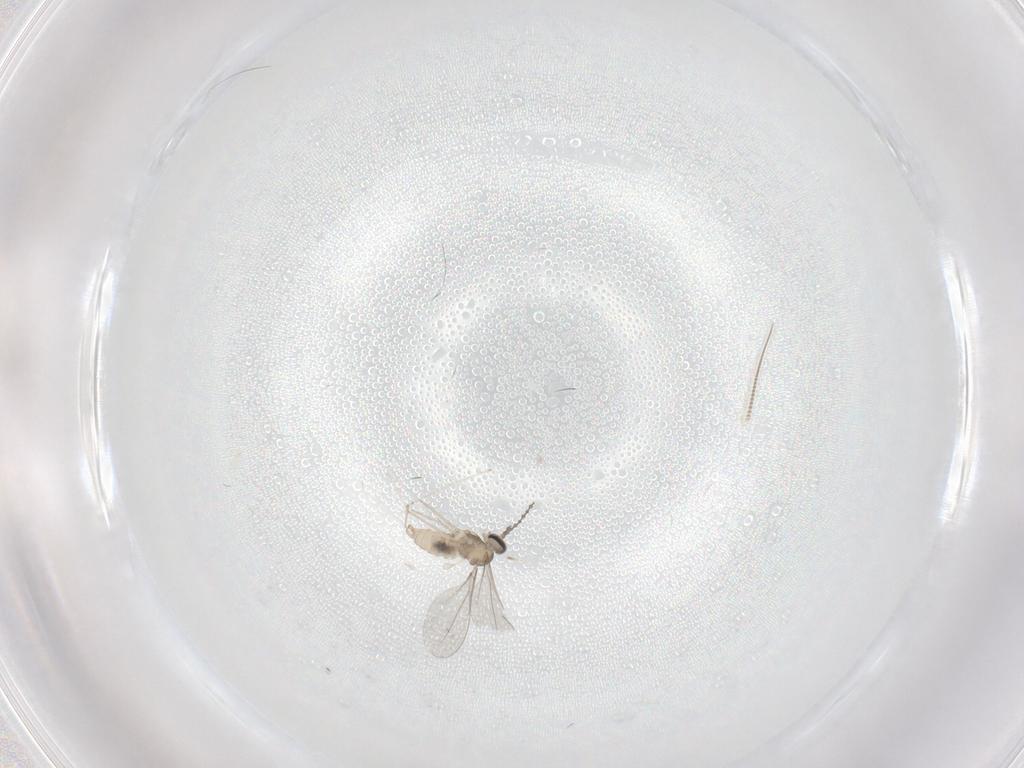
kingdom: Animalia
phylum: Arthropoda
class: Insecta
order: Diptera
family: Cecidomyiidae
